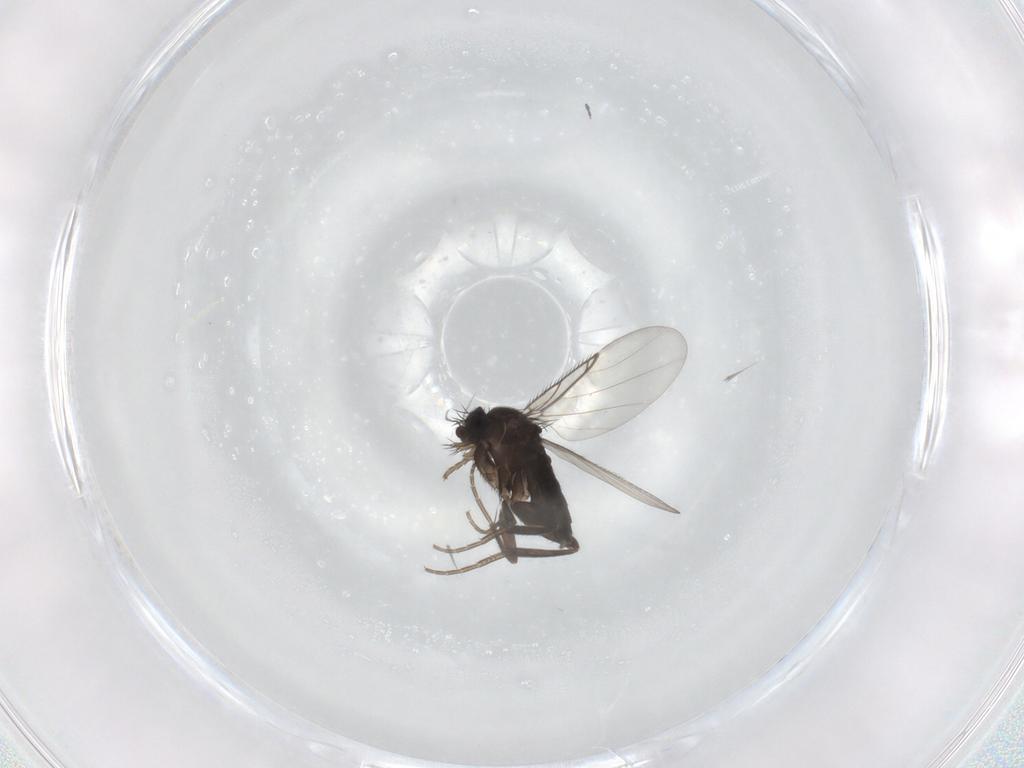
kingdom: Animalia
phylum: Arthropoda
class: Insecta
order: Diptera
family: Phoridae
